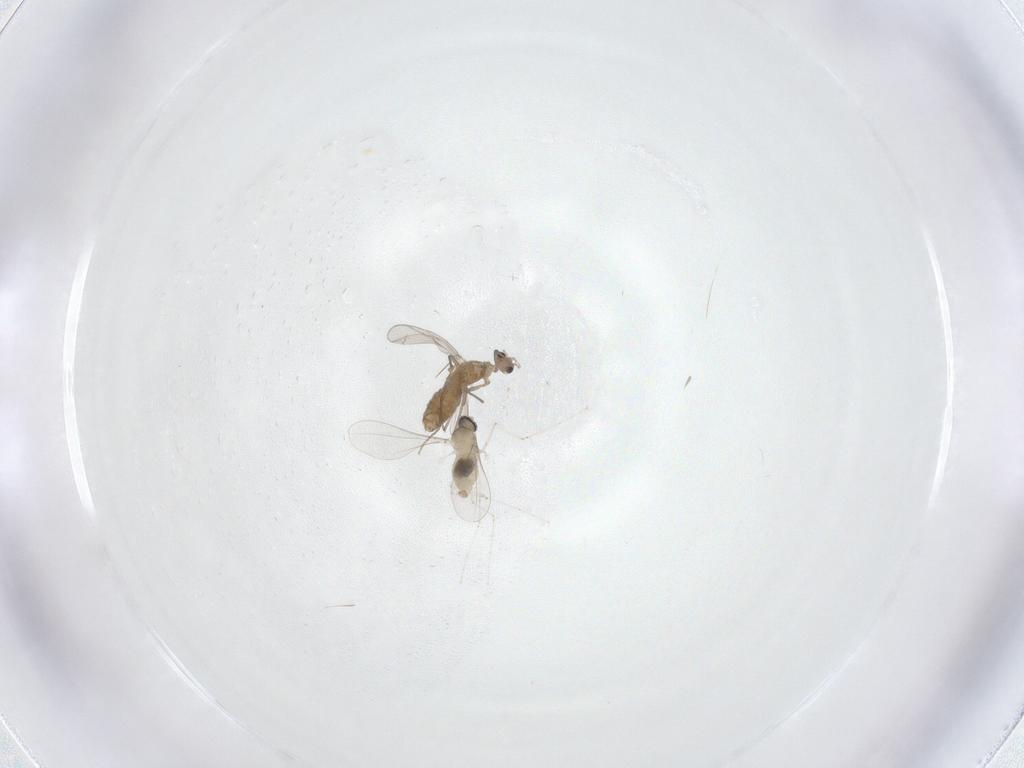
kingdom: Animalia
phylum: Arthropoda
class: Insecta
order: Diptera
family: Chironomidae
